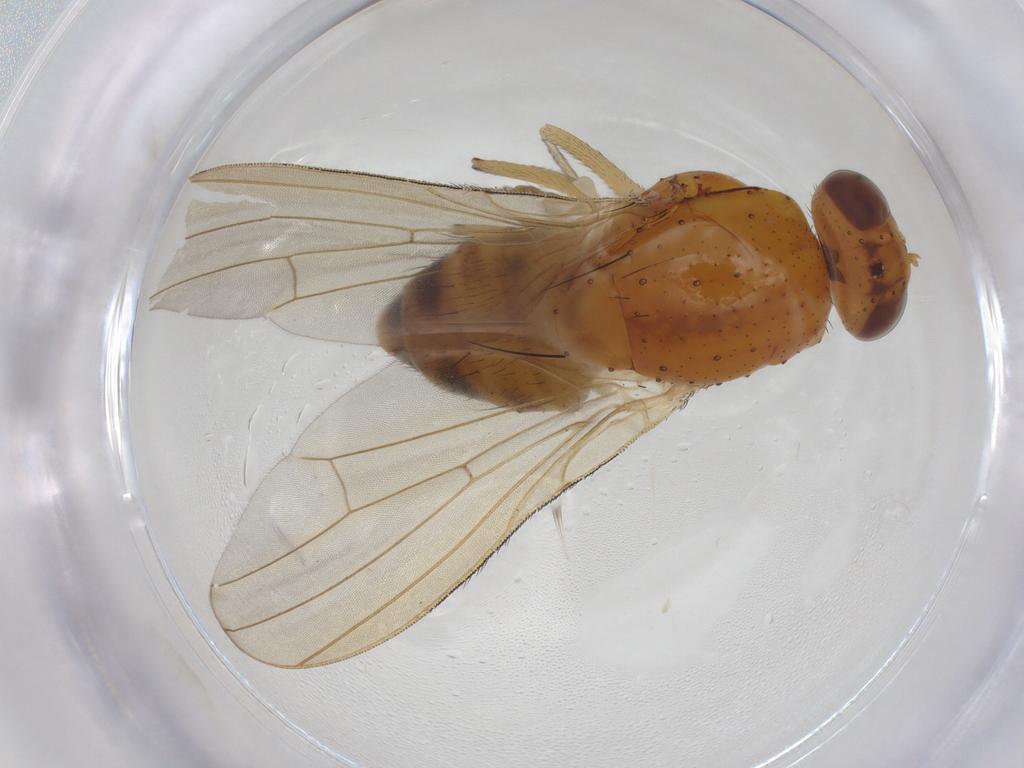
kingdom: Animalia
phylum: Arthropoda
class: Insecta
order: Diptera
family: Chironomidae
